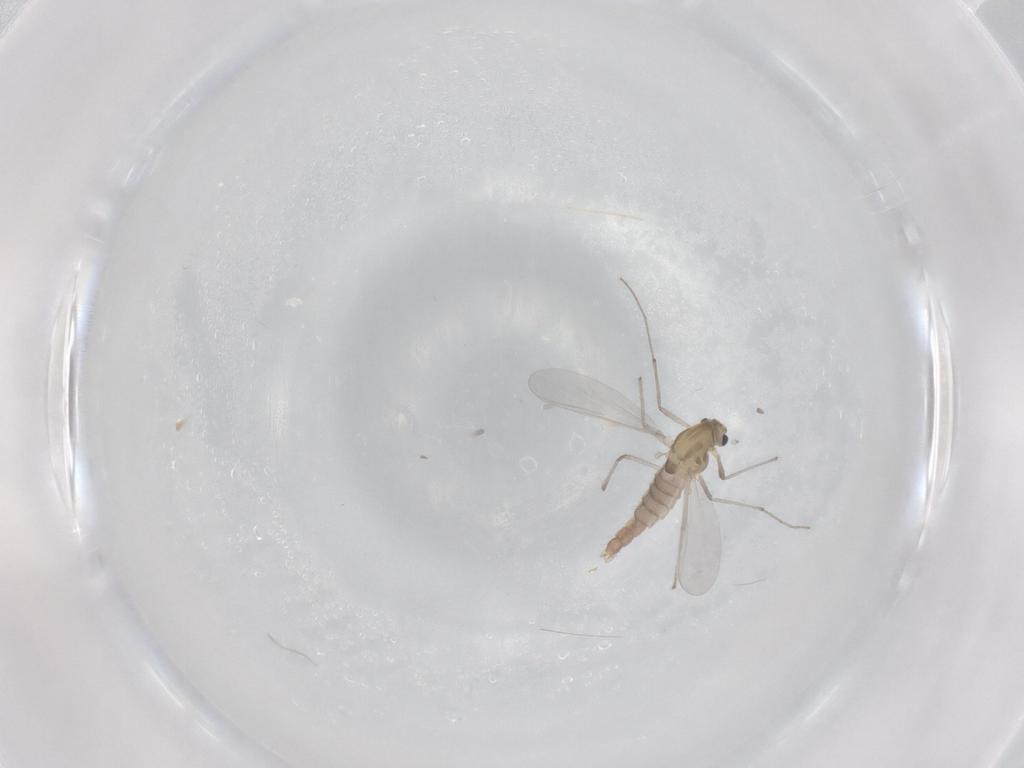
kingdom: Animalia
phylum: Arthropoda
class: Insecta
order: Diptera
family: Chironomidae
